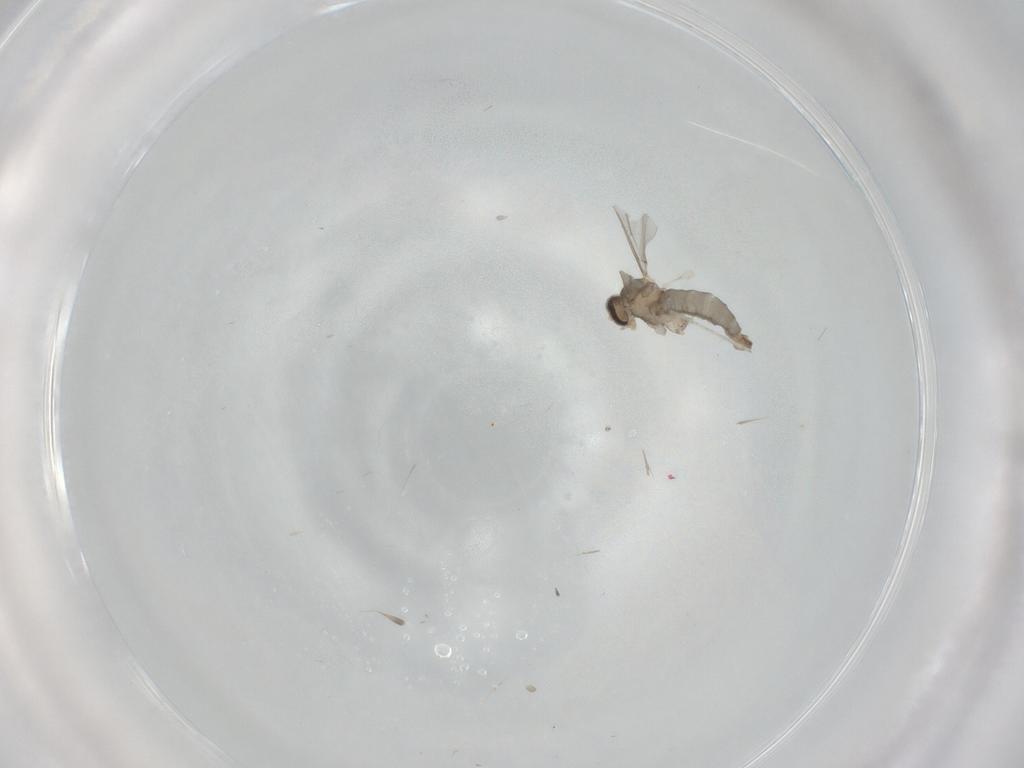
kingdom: Animalia
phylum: Arthropoda
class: Insecta
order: Diptera
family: Cecidomyiidae
